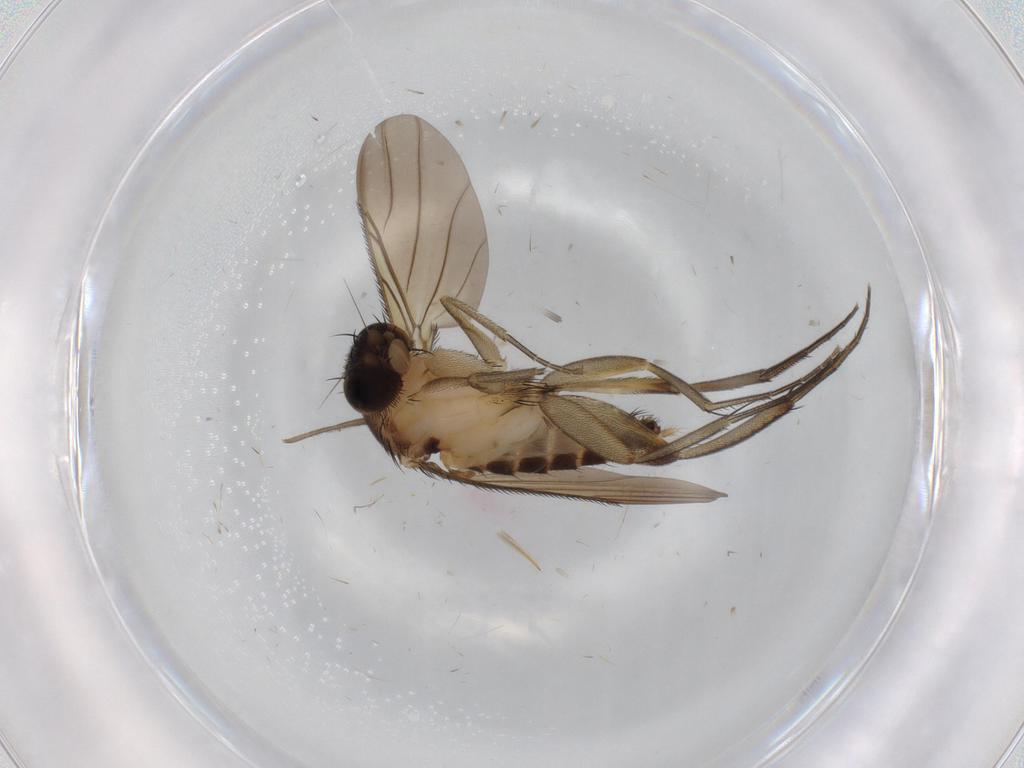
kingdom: Animalia
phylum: Arthropoda
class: Insecta
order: Diptera
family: Phoridae
